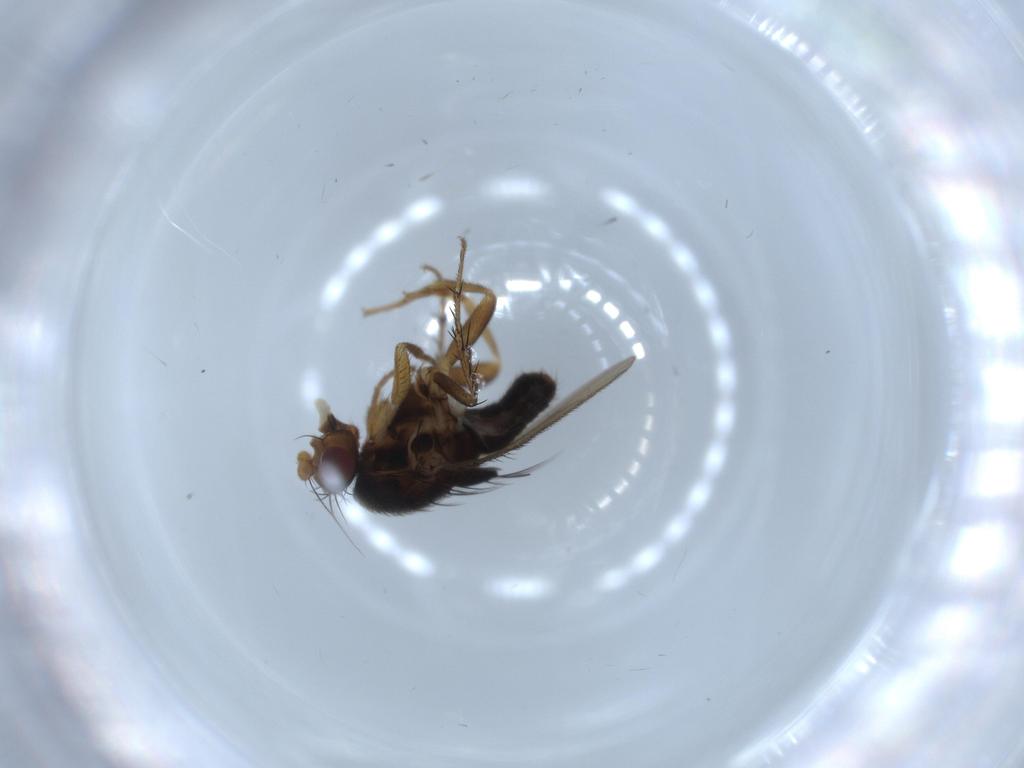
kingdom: Animalia
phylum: Arthropoda
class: Insecta
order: Diptera
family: Sphaeroceridae
